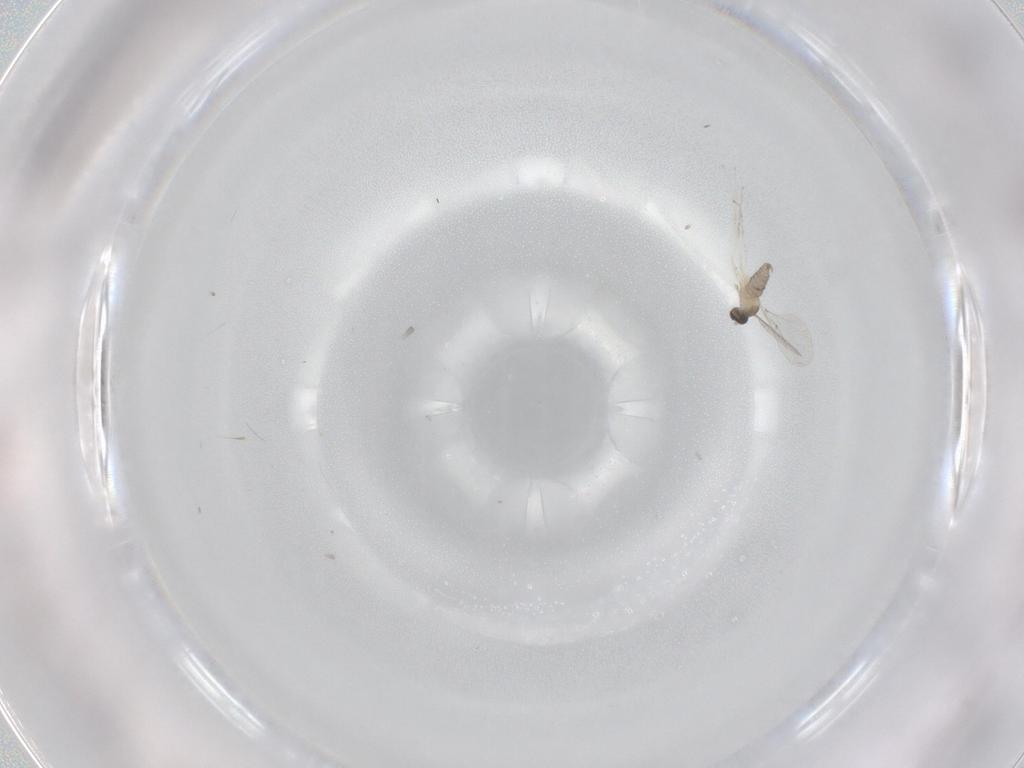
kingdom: Animalia
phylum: Arthropoda
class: Insecta
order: Diptera
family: Cecidomyiidae
